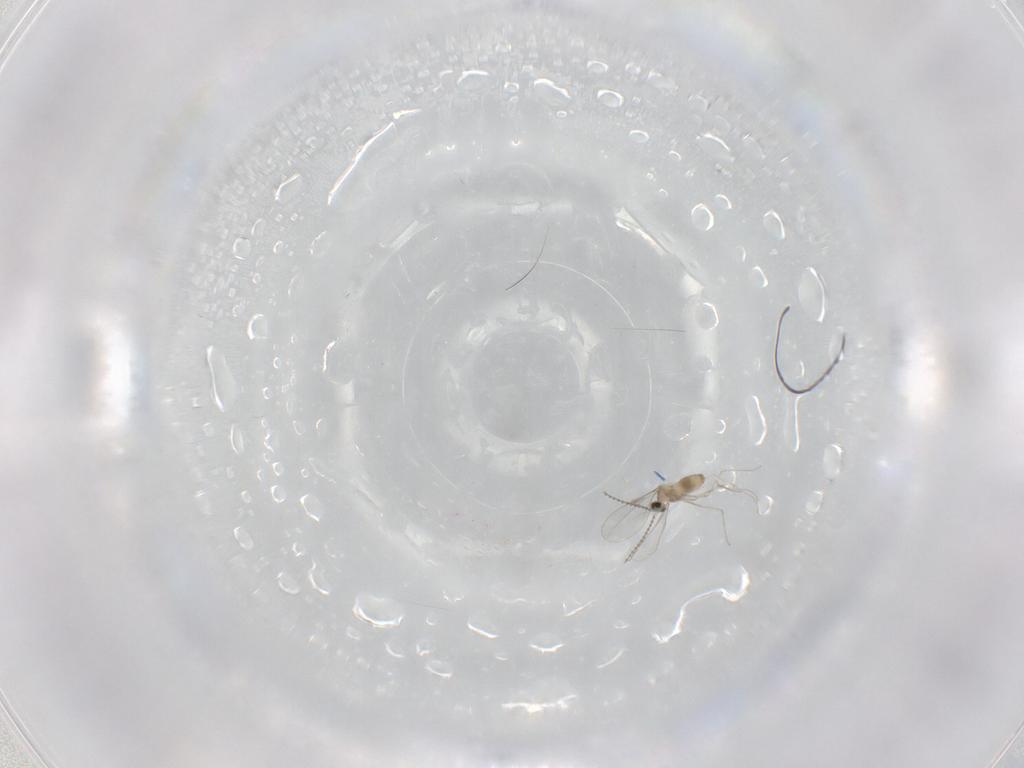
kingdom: Animalia
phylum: Arthropoda
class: Insecta
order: Diptera
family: Cecidomyiidae
